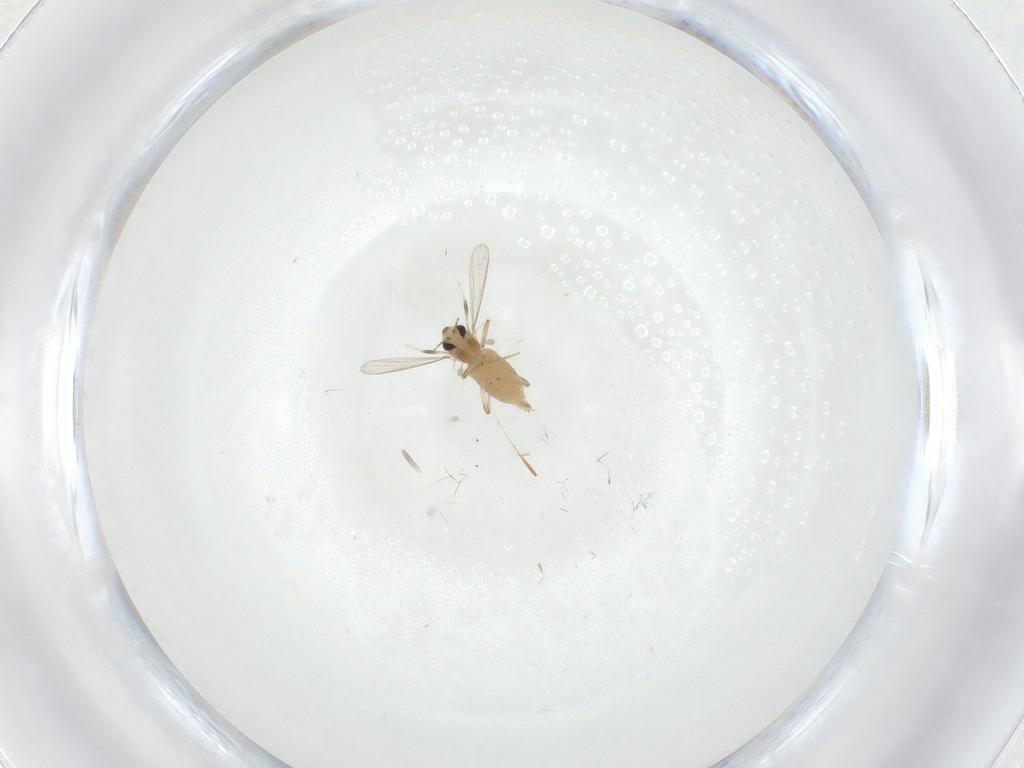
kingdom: Animalia
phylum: Arthropoda
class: Insecta
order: Diptera
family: Chironomidae
